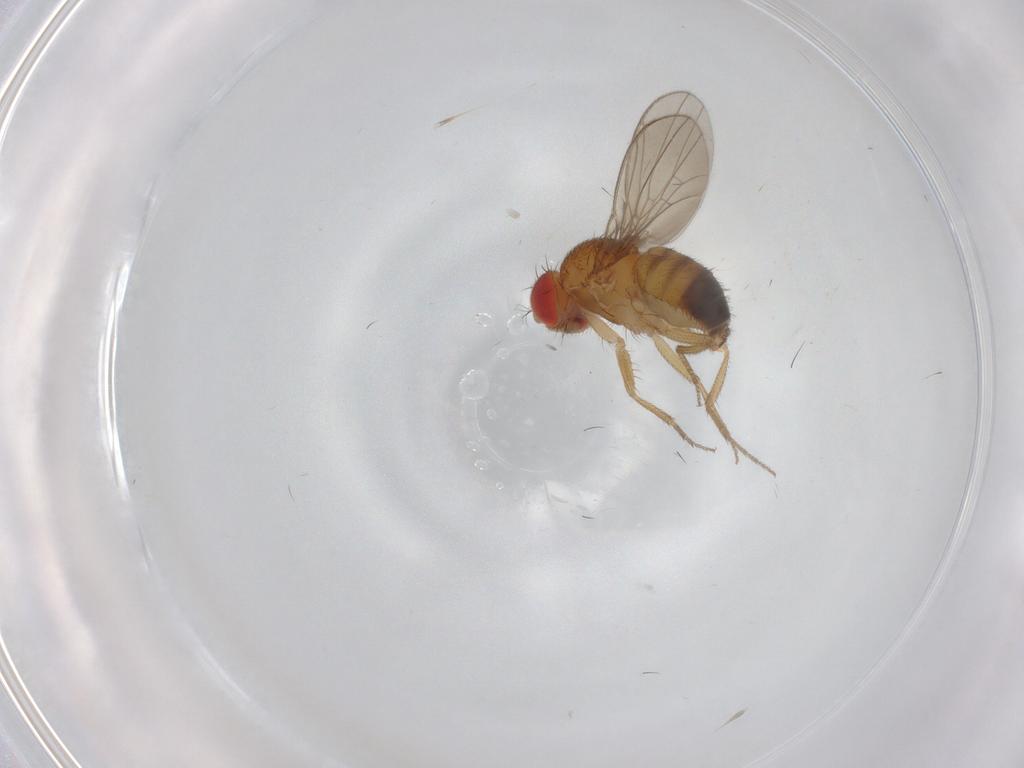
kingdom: Animalia
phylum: Arthropoda
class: Insecta
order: Diptera
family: Drosophilidae
